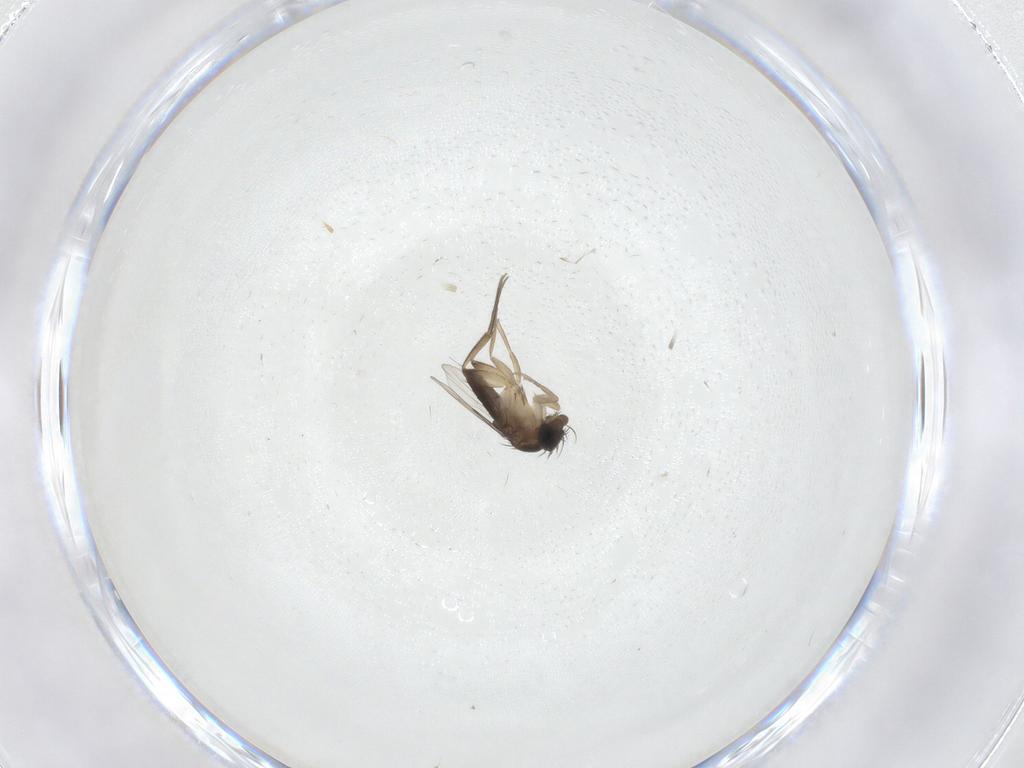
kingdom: Animalia
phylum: Arthropoda
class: Insecta
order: Diptera
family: Phoridae
